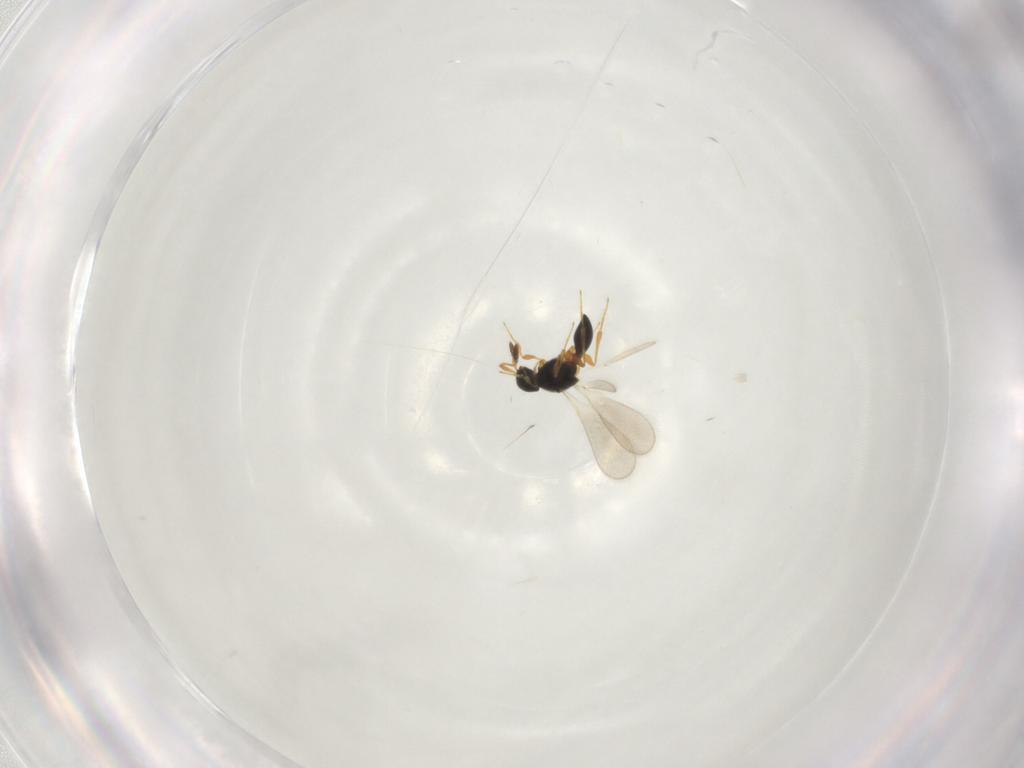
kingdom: Animalia
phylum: Arthropoda
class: Insecta
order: Hymenoptera
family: Platygastridae
